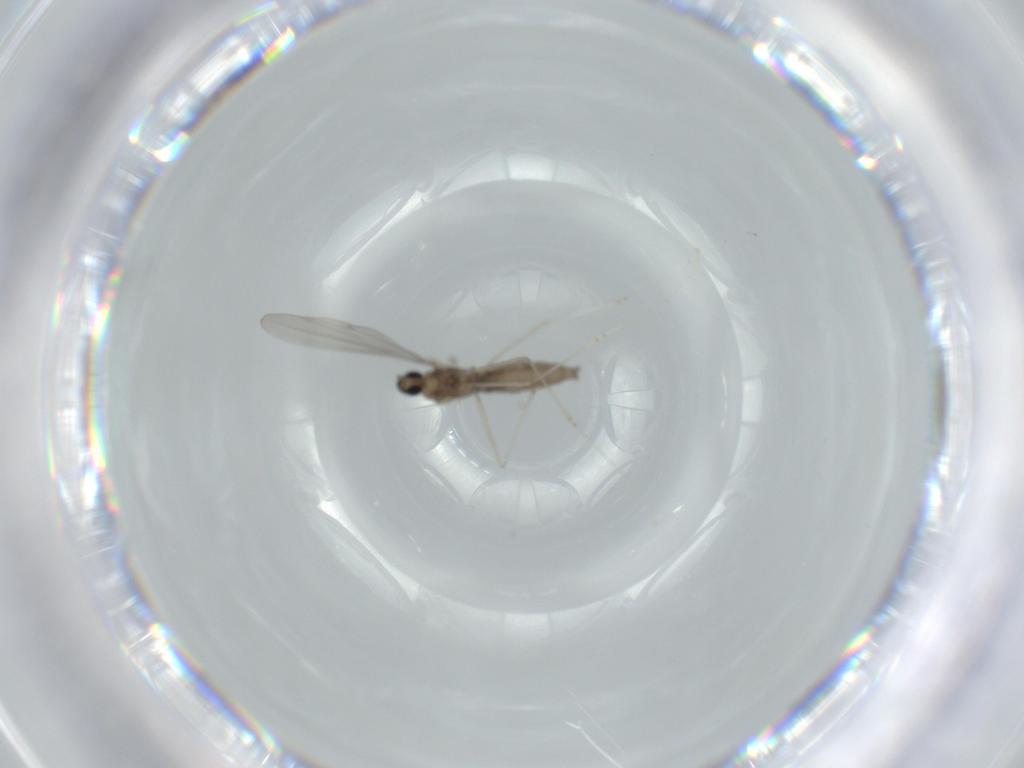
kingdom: Animalia
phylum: Arthropoda
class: Insecta
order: Diptera
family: Cecidomyiidae
